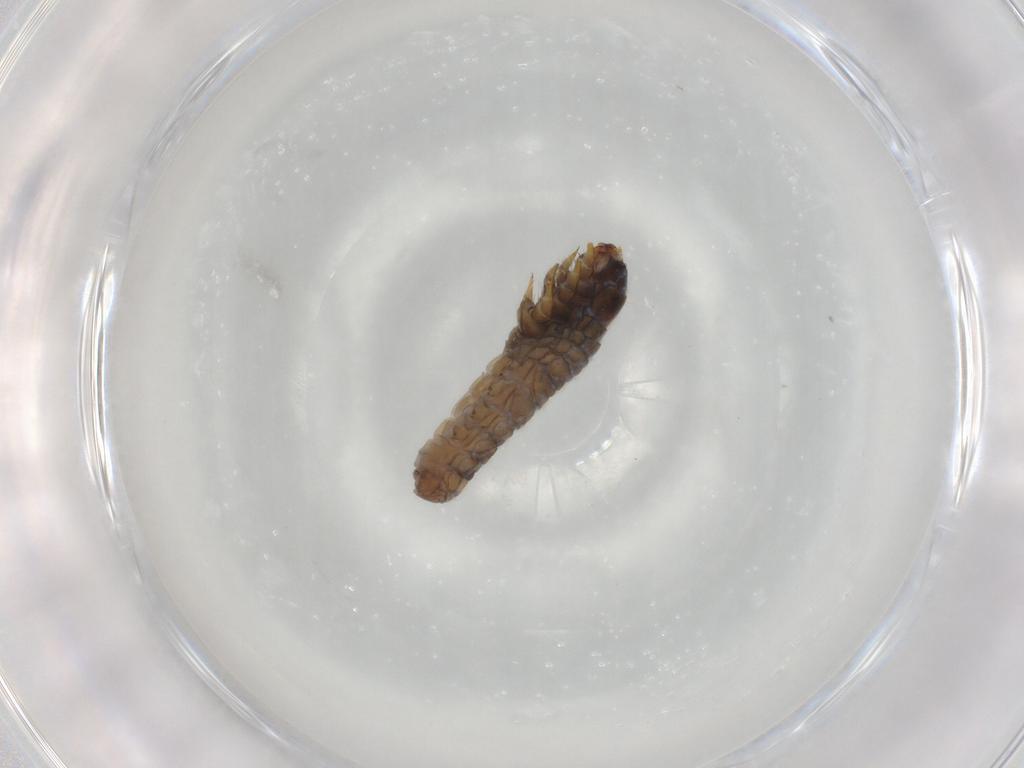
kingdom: Animalia
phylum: Arthropoda
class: Insecta
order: Lepidoptera
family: Psychidae
